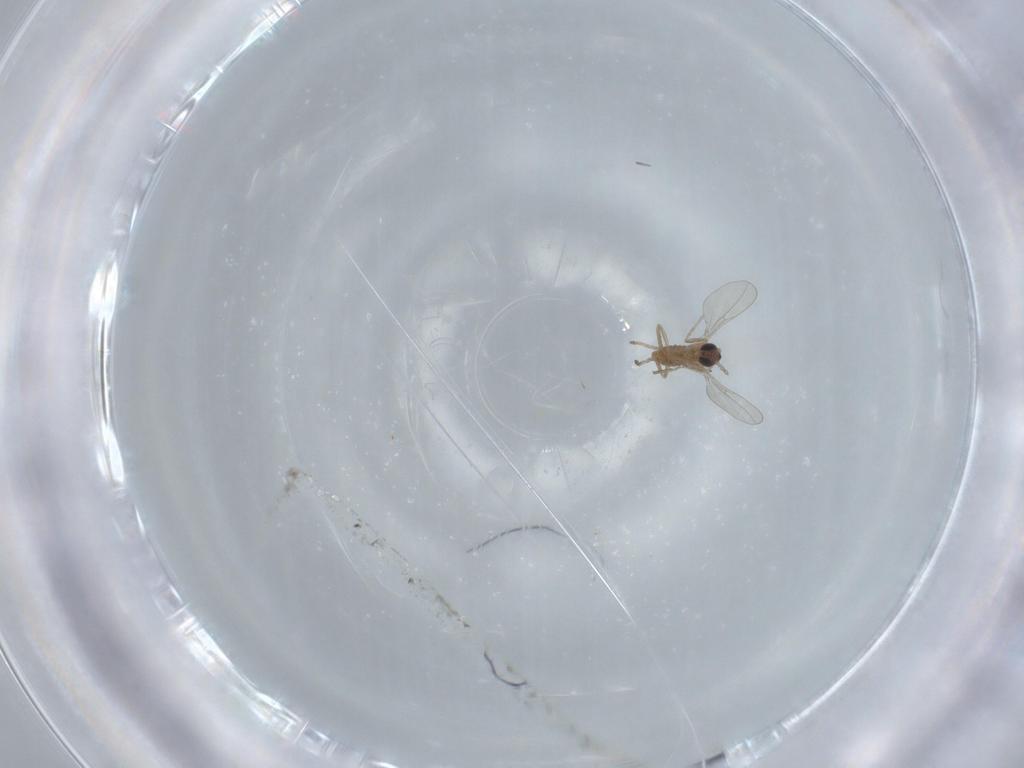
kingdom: Animalia
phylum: Arthropoda
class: Insecta
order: Diptera
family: Cecidomyiidae
